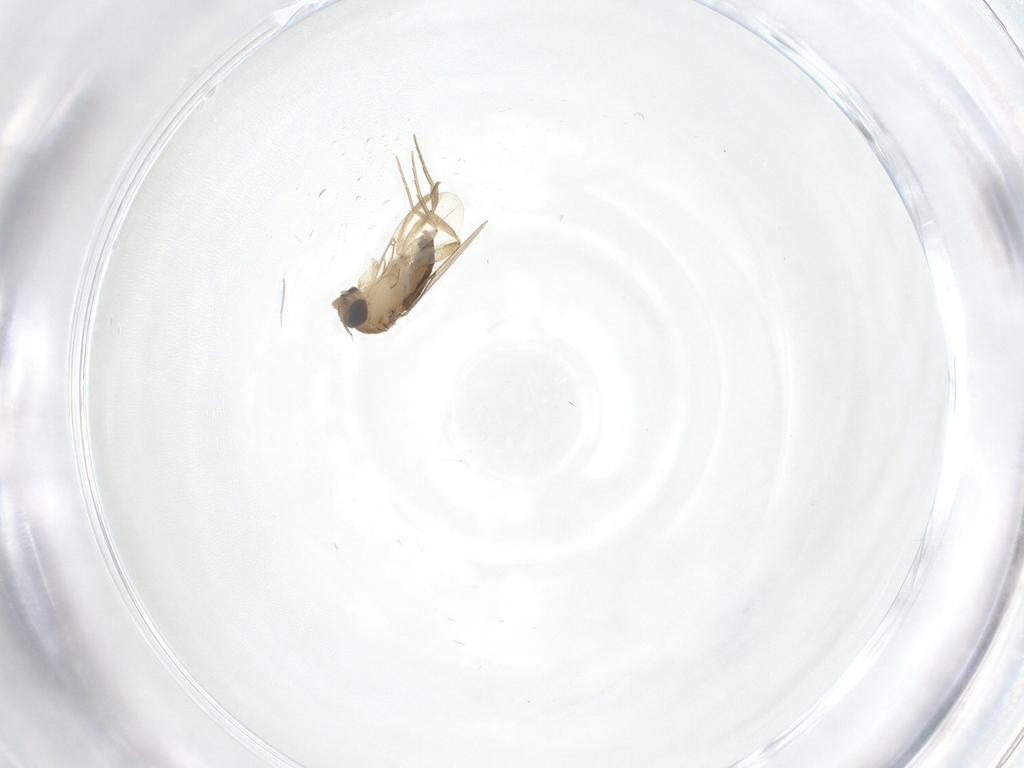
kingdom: Animalia
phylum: Arthropoda
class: Insecta
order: Diptera
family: Phoridae
